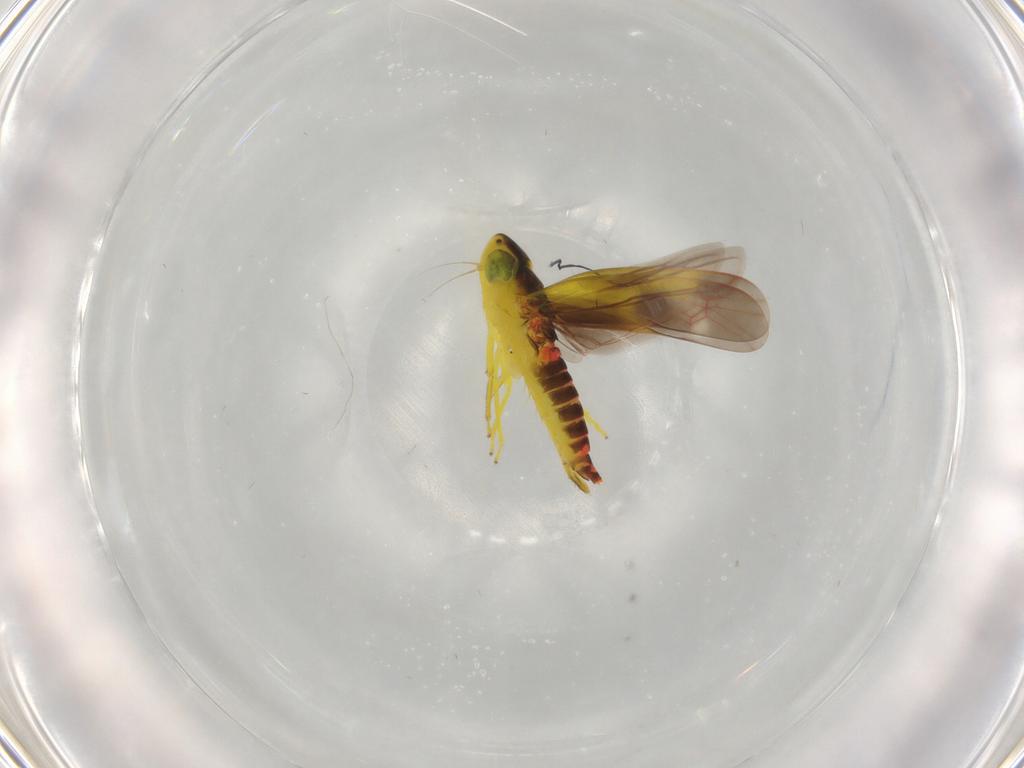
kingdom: Animalia
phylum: Arthropoda
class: Insecta
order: Hemiptera
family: Cicadellidae
